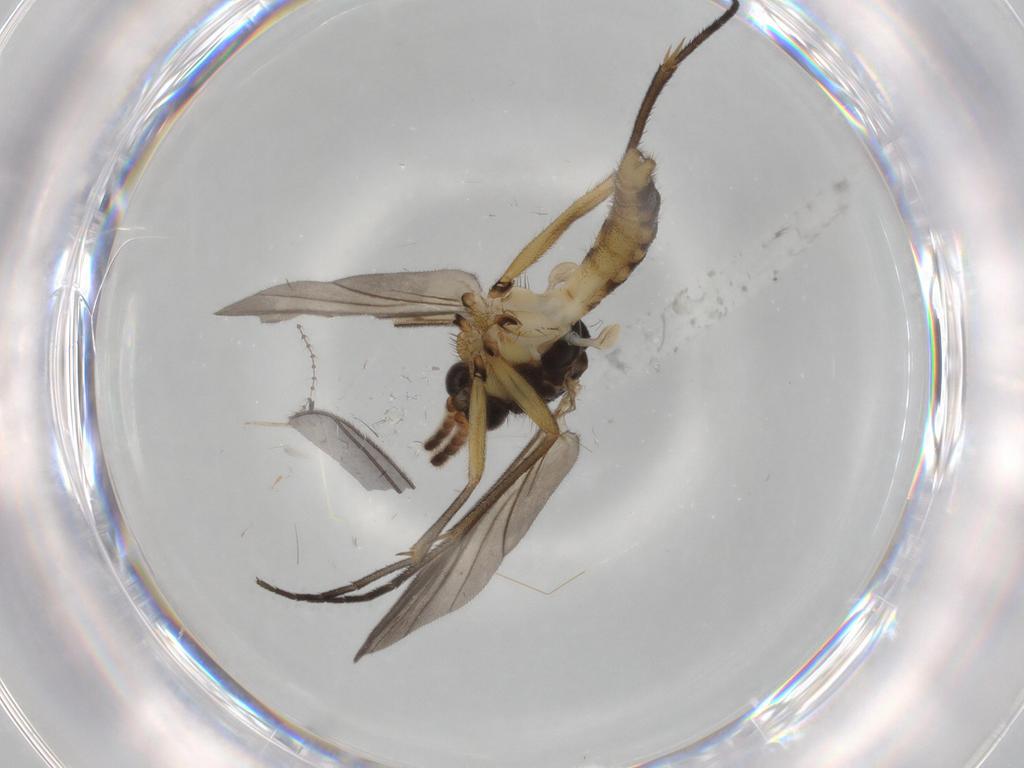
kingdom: Animalia
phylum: Arthropoda
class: Insecta
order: Diptera
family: Chironomidae
